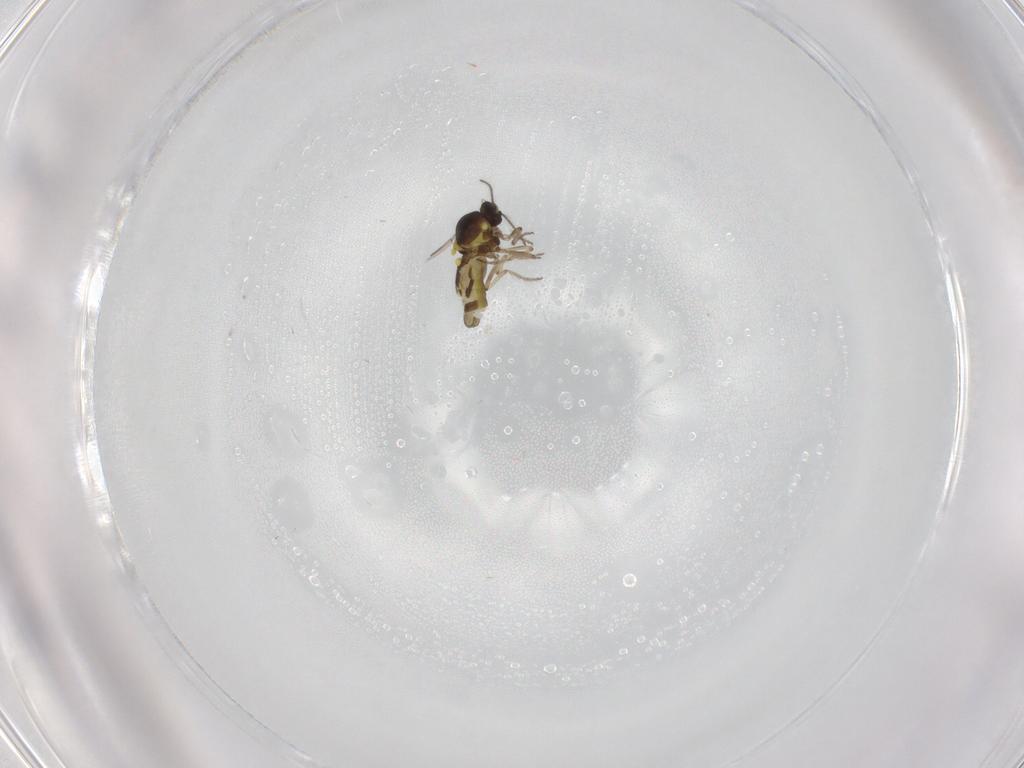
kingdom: Animalia
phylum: Arthropoda
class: Insecta
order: Diptera
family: Ceratopogonidae
